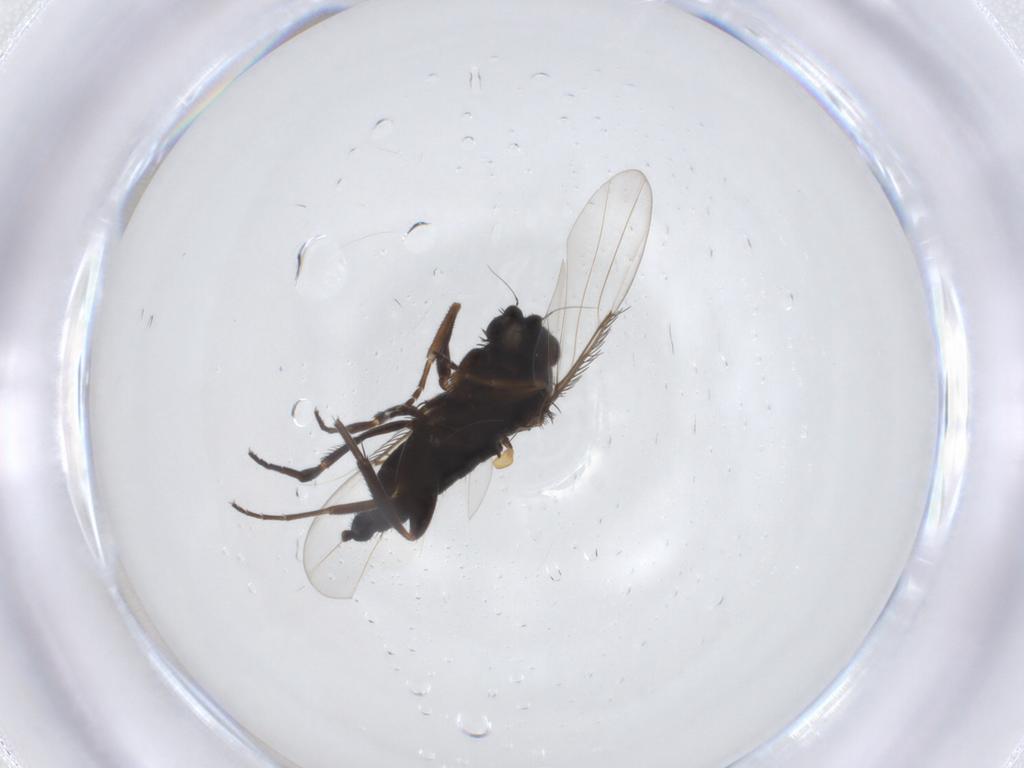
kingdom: Animalia
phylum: Arthropoda
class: Insecta
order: Diptera
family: Phoridae
